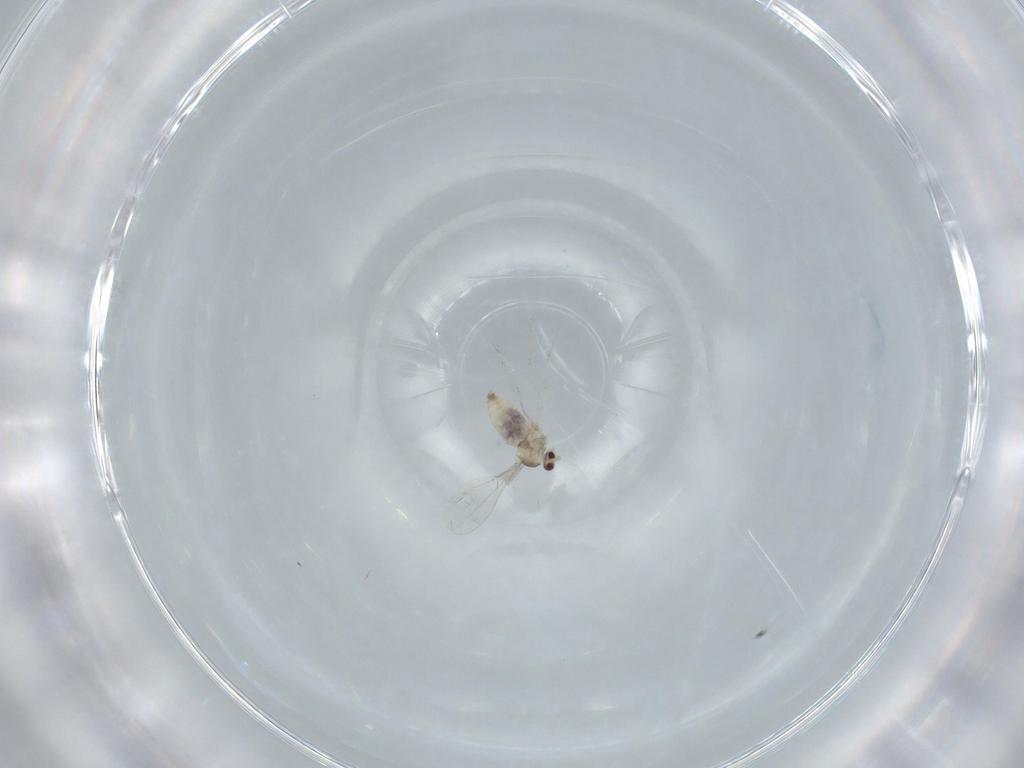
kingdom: Animalia
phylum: Arthropoda
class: Insecta
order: Diptera
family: Cecidomyiidae
